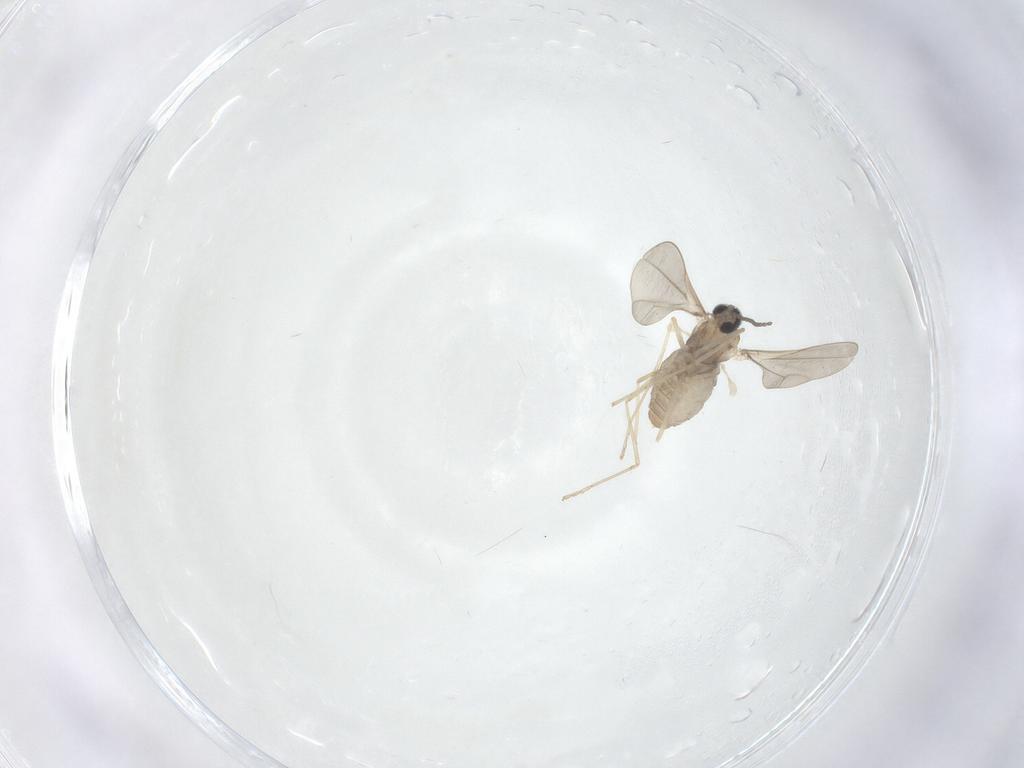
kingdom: Animalia
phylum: Arthropoda
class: Insecta
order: Diptera
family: Cecidomyiidae
